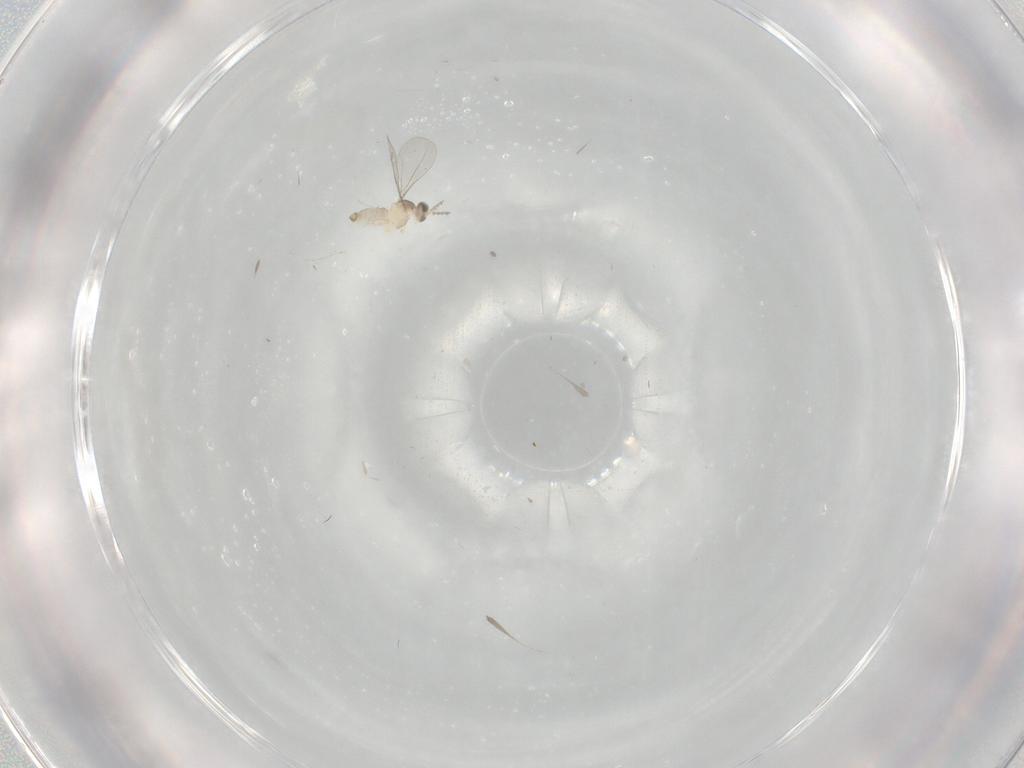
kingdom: Animalia
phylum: Arthropoda
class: Insecta
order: Diptera
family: Cecidomyiidae
